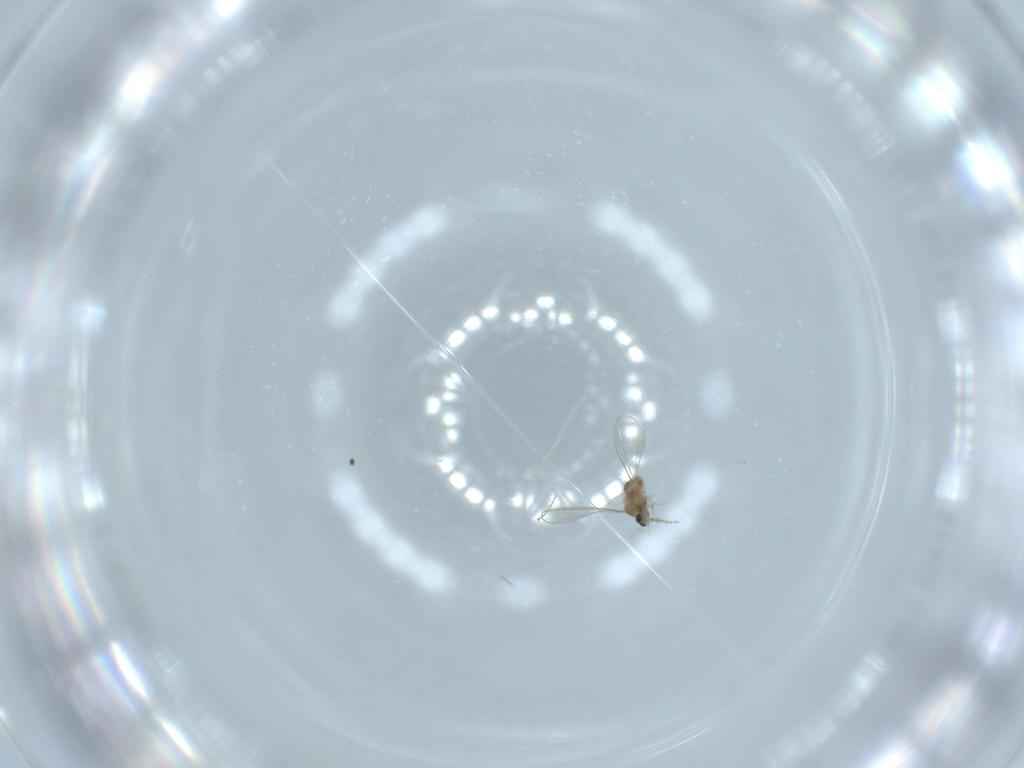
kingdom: Animalia
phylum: Arthropoda
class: Insecta
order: Diptera
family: Cecidomyiidae
